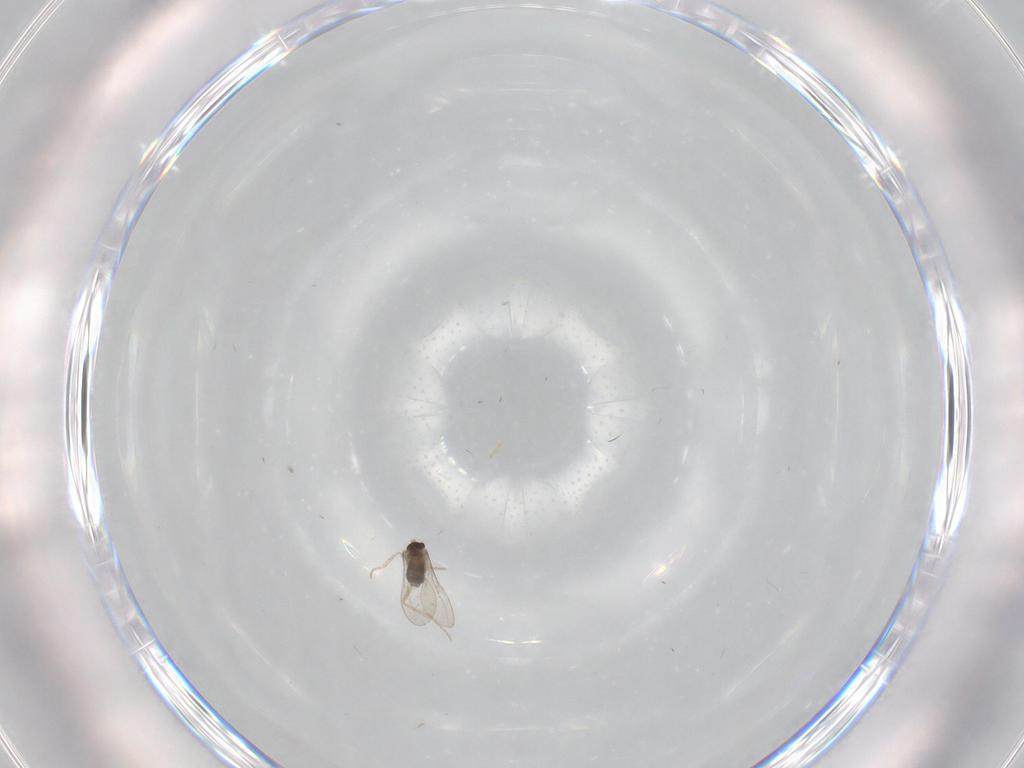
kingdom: Animalia
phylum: Arthropoda
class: Insecta
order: Diptera
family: Cecidomyiidae
